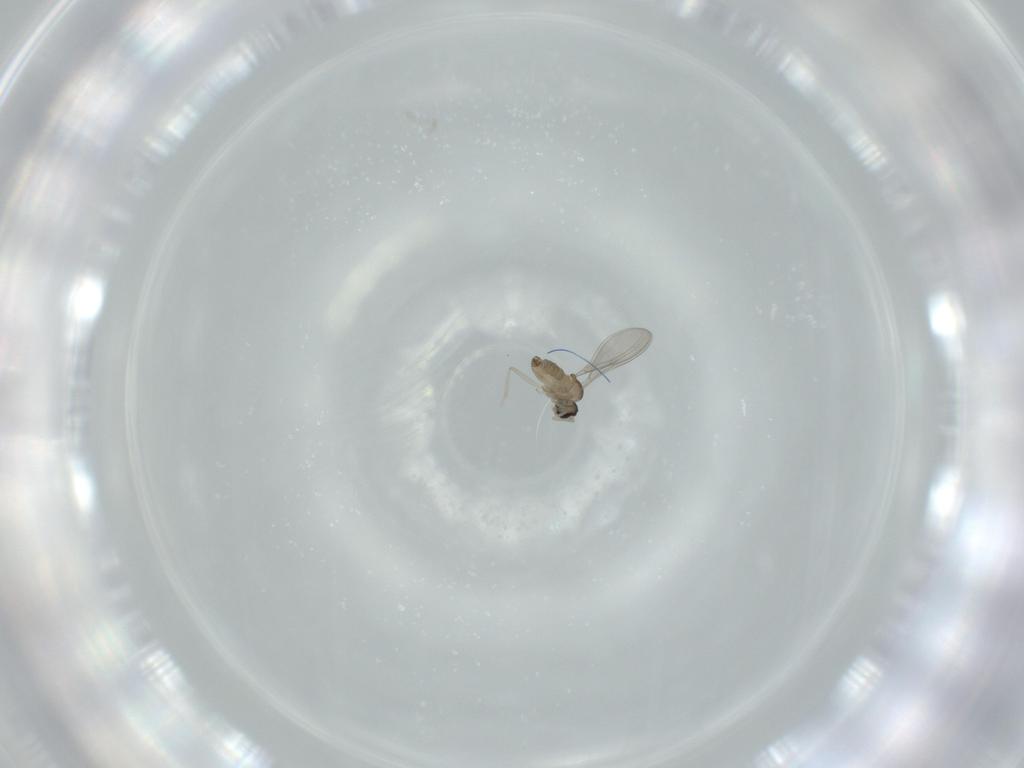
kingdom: Animalia
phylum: Arthropoda
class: Insecta
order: Diptera
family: Cecidomyiidae
